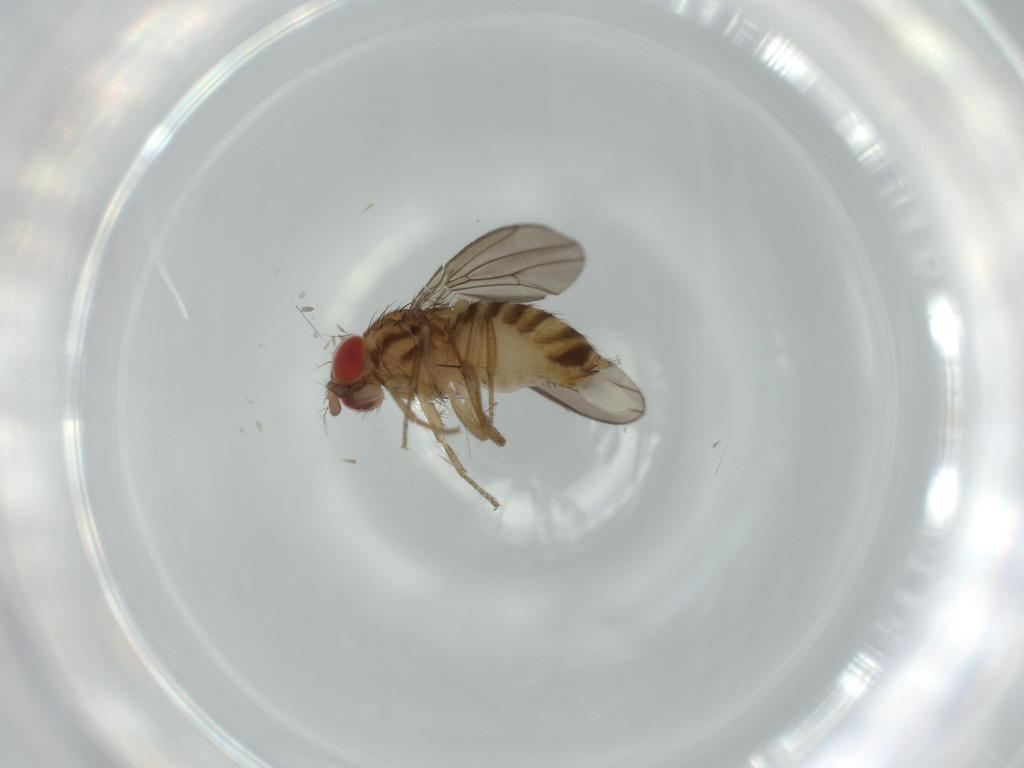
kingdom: Animalia
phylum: Arthropoda
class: Insecta
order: Diptera
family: Drosophilidae
